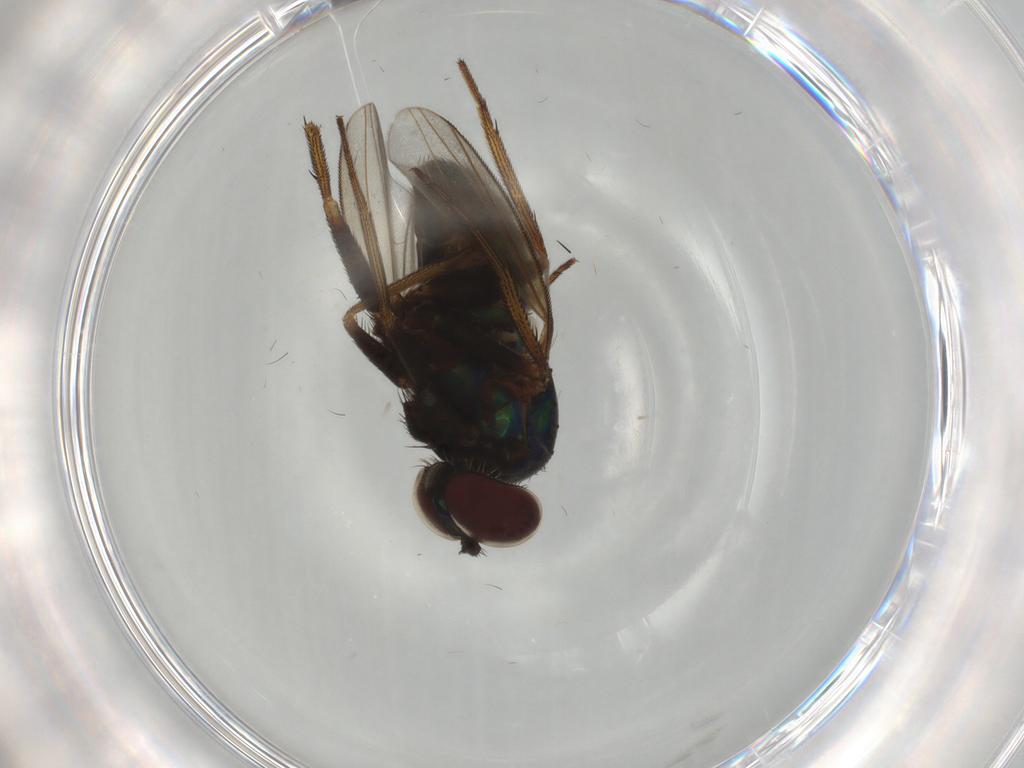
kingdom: Animalia
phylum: Arthropoda
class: Insecta
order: Diptera
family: Dolichopodidae
